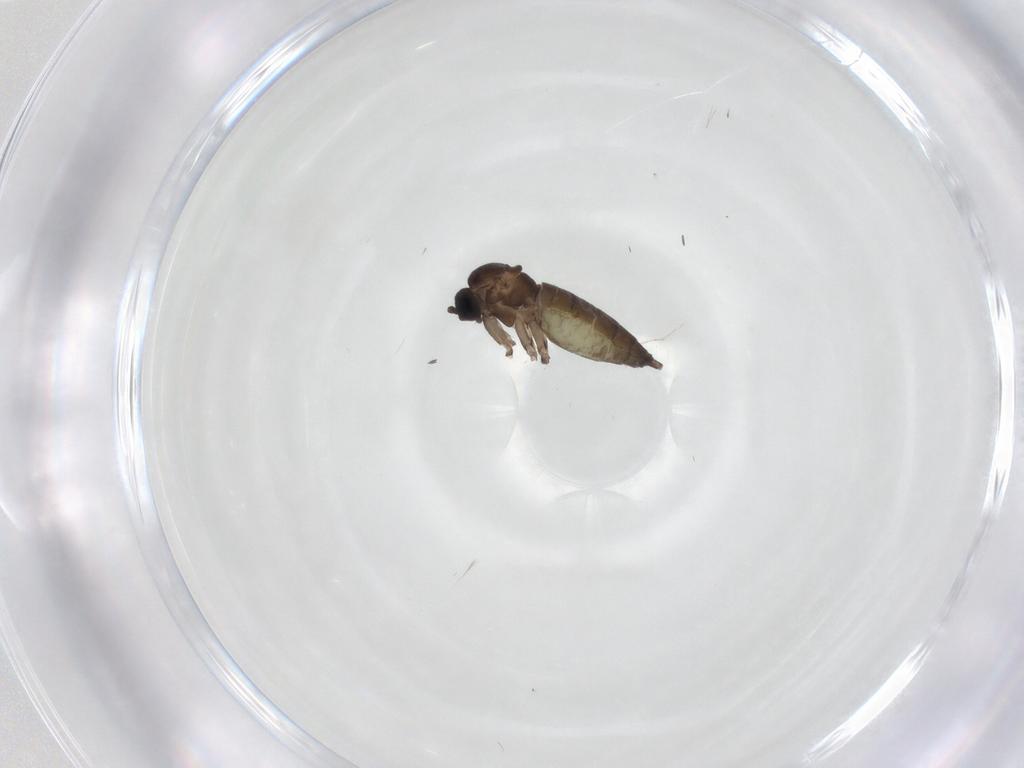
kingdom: Animalia
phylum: Arthropoda
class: Insecta
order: Diptera
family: Sciaridae
